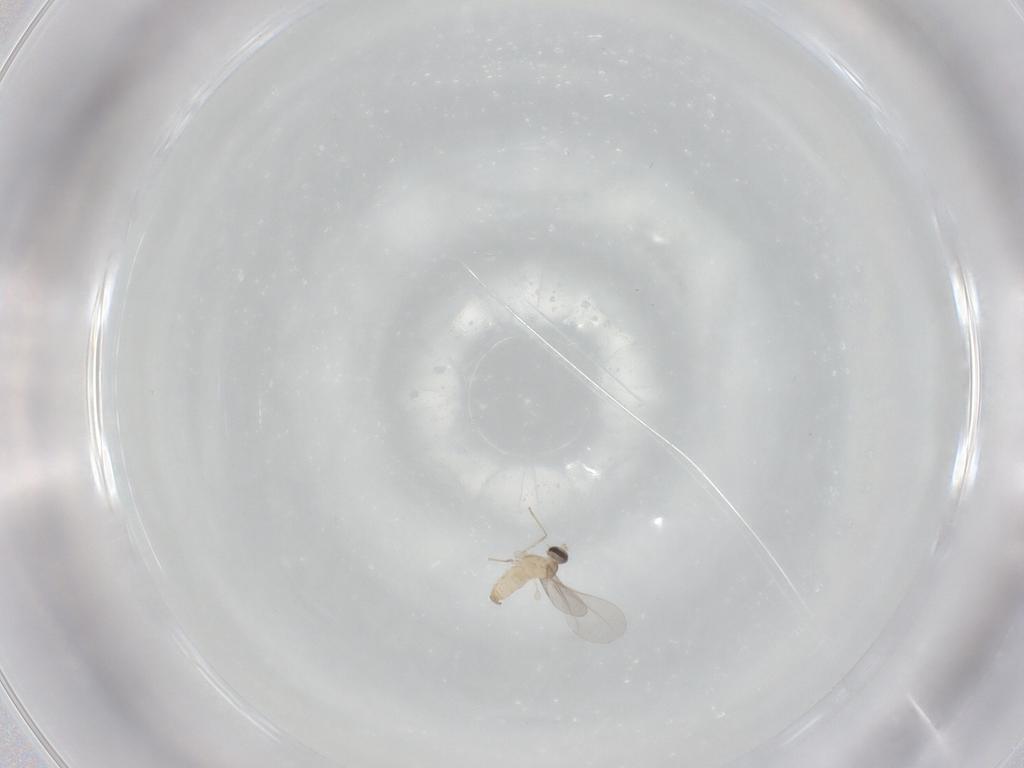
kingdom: Animalia
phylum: Arthropoda
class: Insecta
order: Diptera
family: Cecidomyiidae
